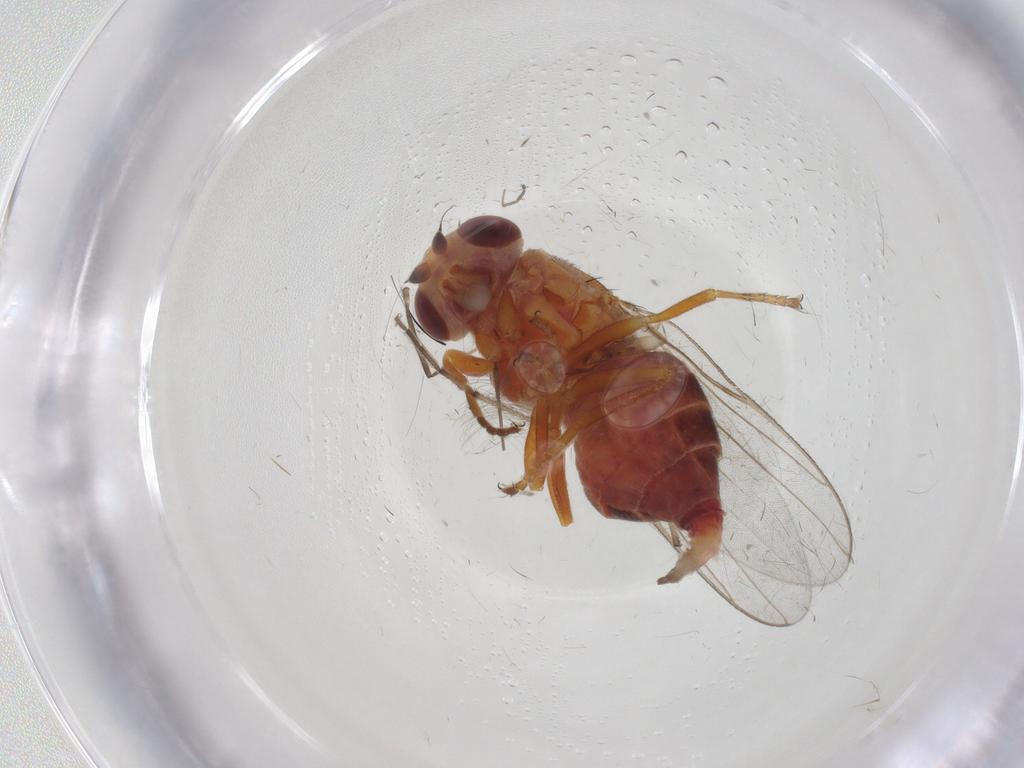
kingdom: Animalia
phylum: Arthropoda
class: Insecta
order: Diptera
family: Chloropidae
